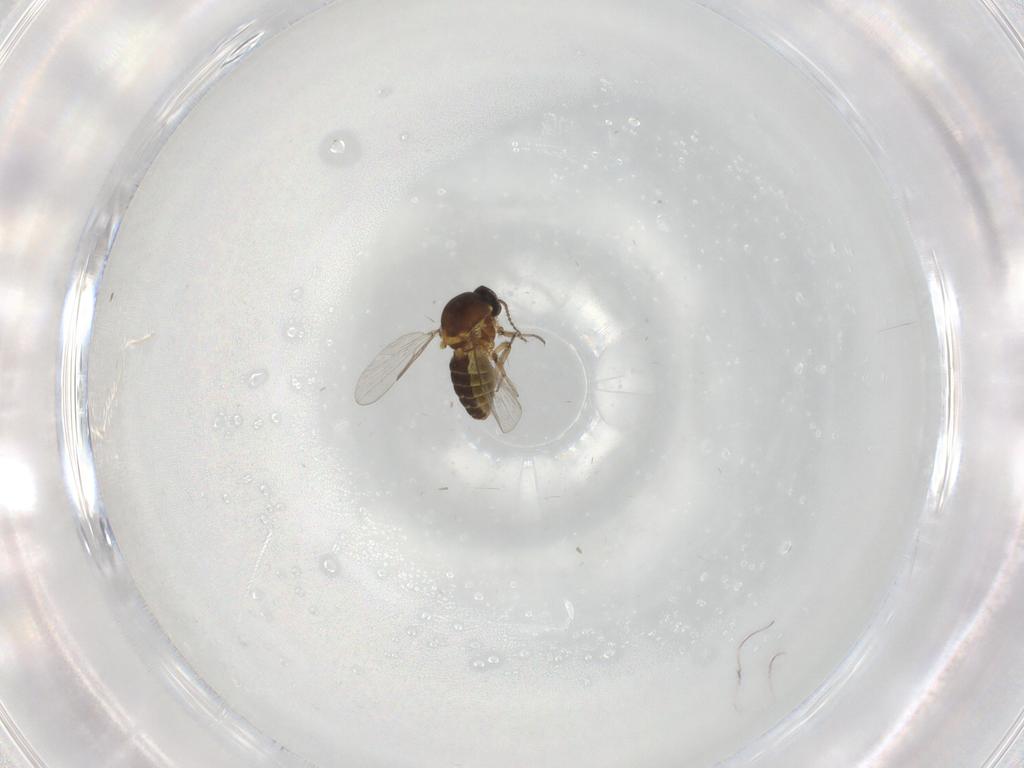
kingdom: Animalia
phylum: Arthropoda
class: Insecta
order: Diptera
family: Ceratopogonidae
